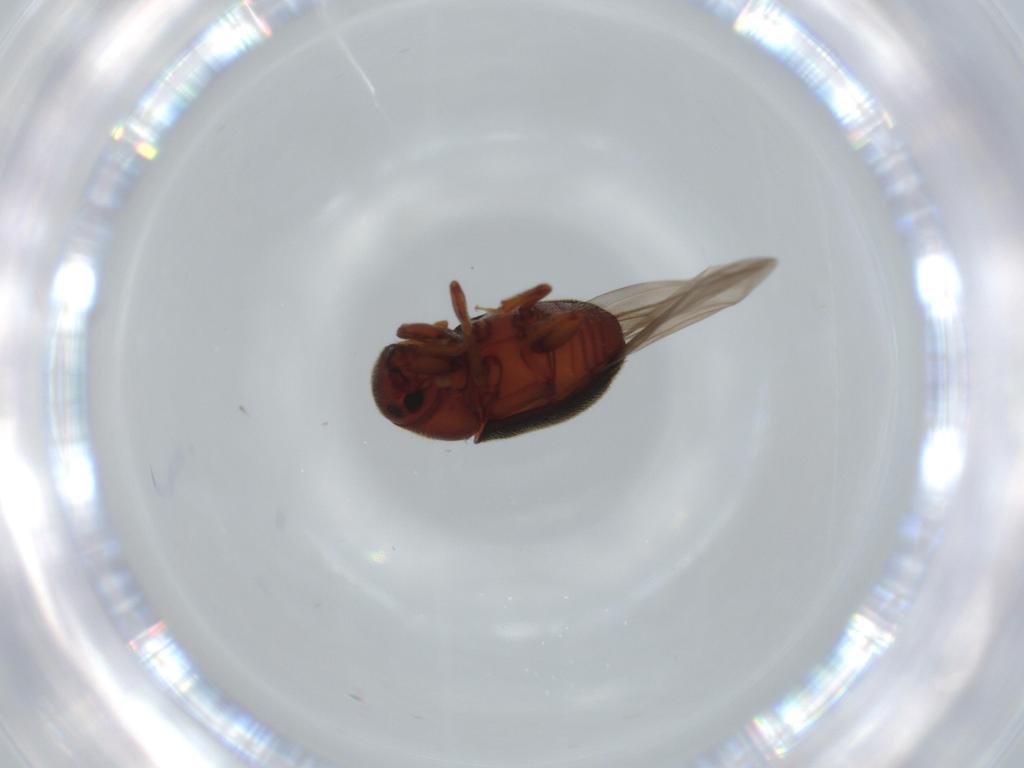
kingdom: Animalia
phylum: Arthropoda
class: Insecta
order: Coleoptera
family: Curculionidae
